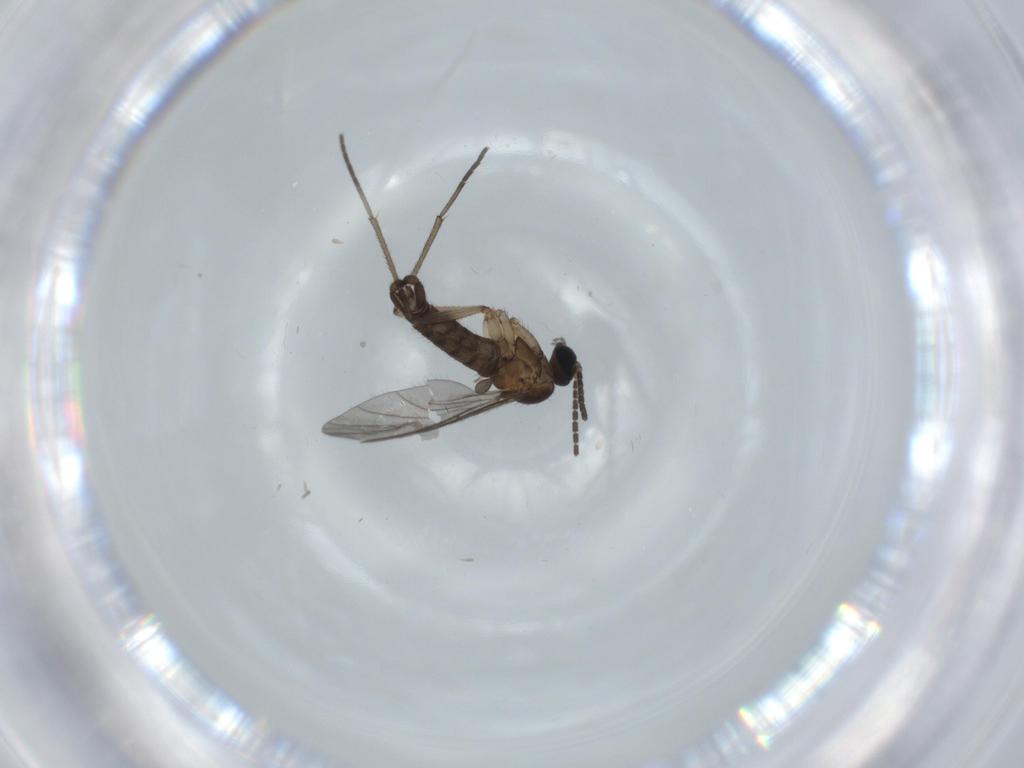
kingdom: Animalia
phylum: Arthropoda
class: Insecta
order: Diptera
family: Sciaridae
